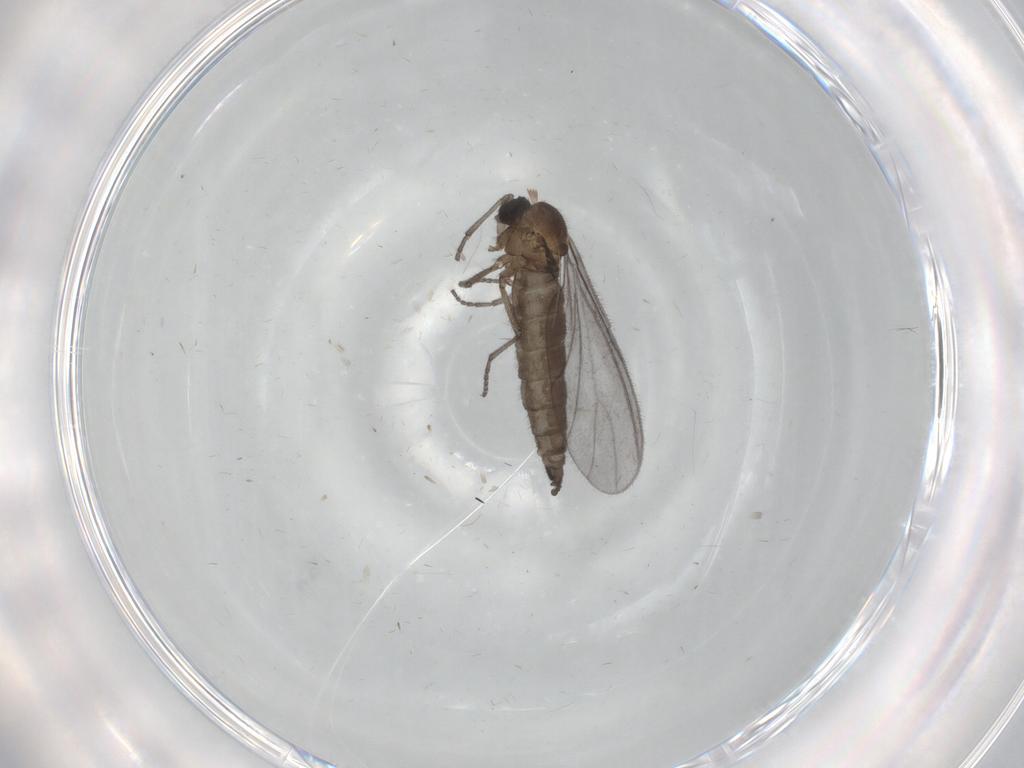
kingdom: Animalia
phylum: Arthropoda
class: Insecta
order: Diptera
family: Sciaridae
